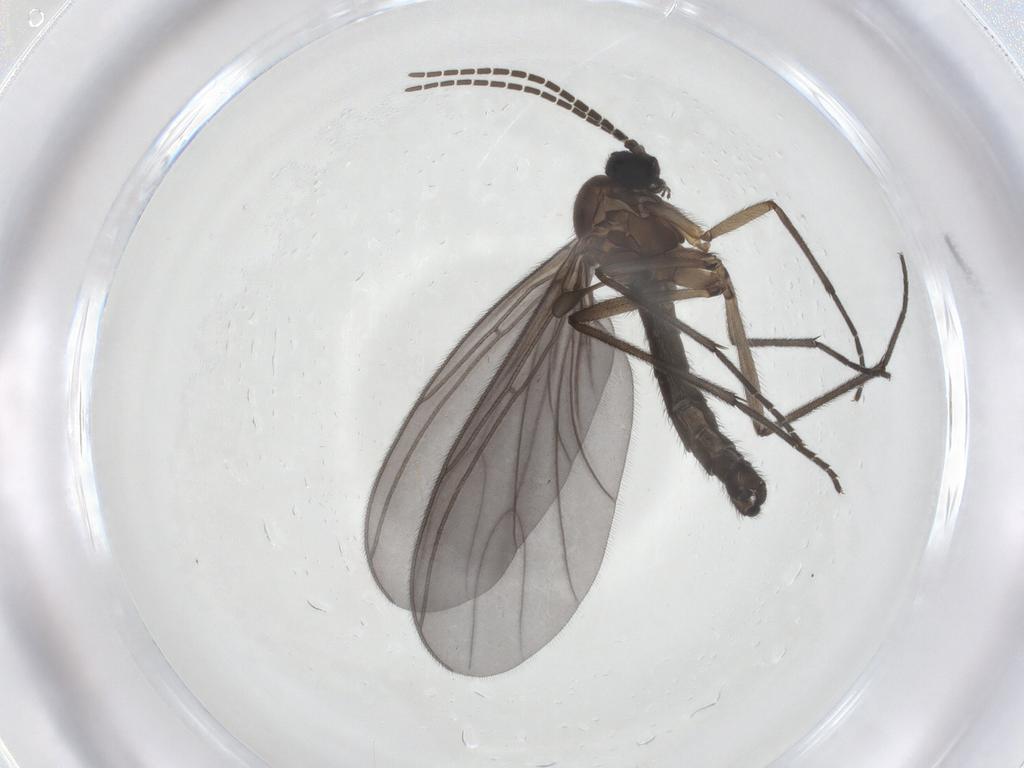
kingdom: Animalia
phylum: Arthropoda
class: Insecta
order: Diptera
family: Sciaridae
